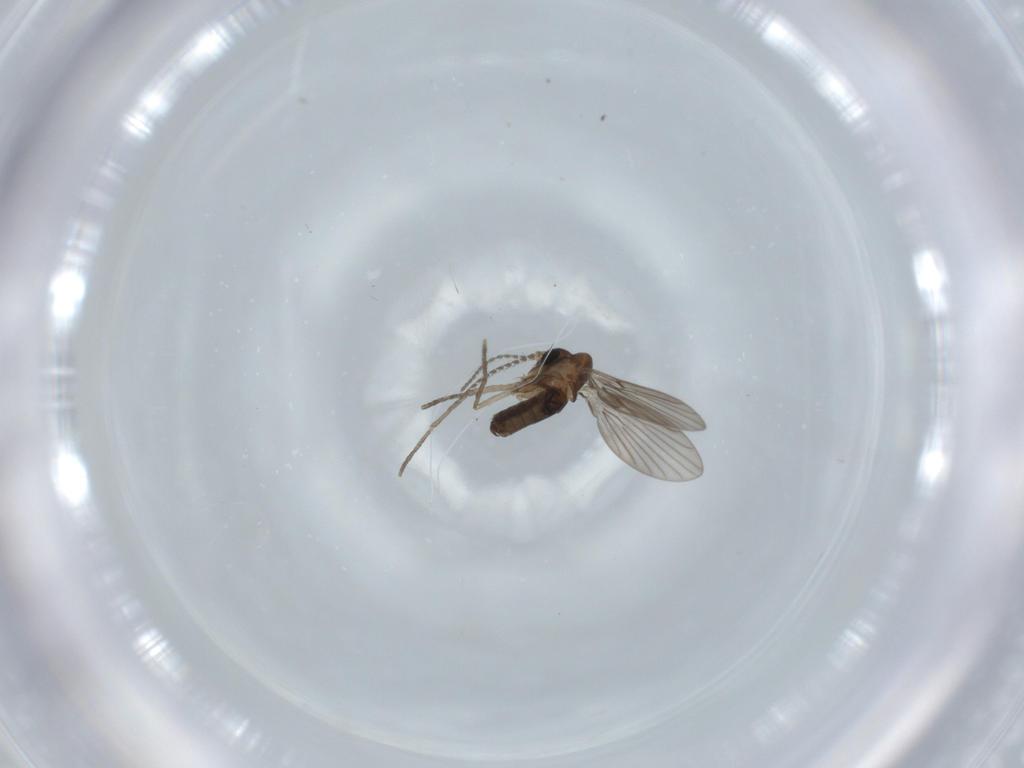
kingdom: Animalia
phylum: Arthropoda
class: Insecta
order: Diptera
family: Psychodidae
